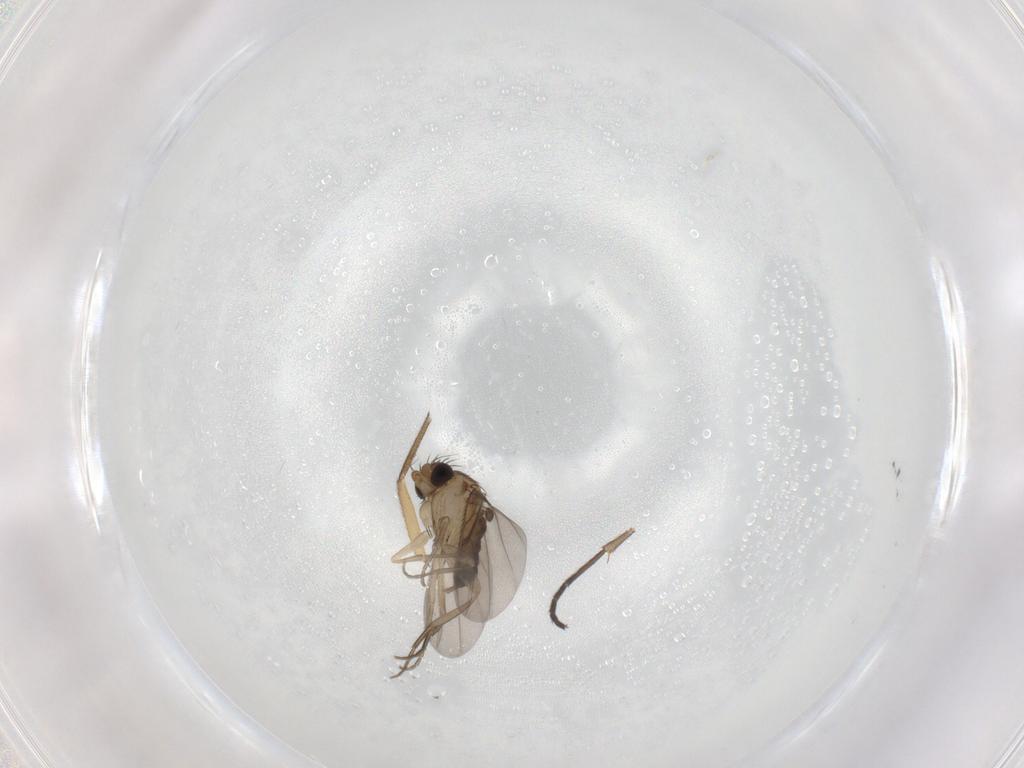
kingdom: Animalia
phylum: Arthropoda
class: Insecta
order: Diptera
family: Sciaridae
